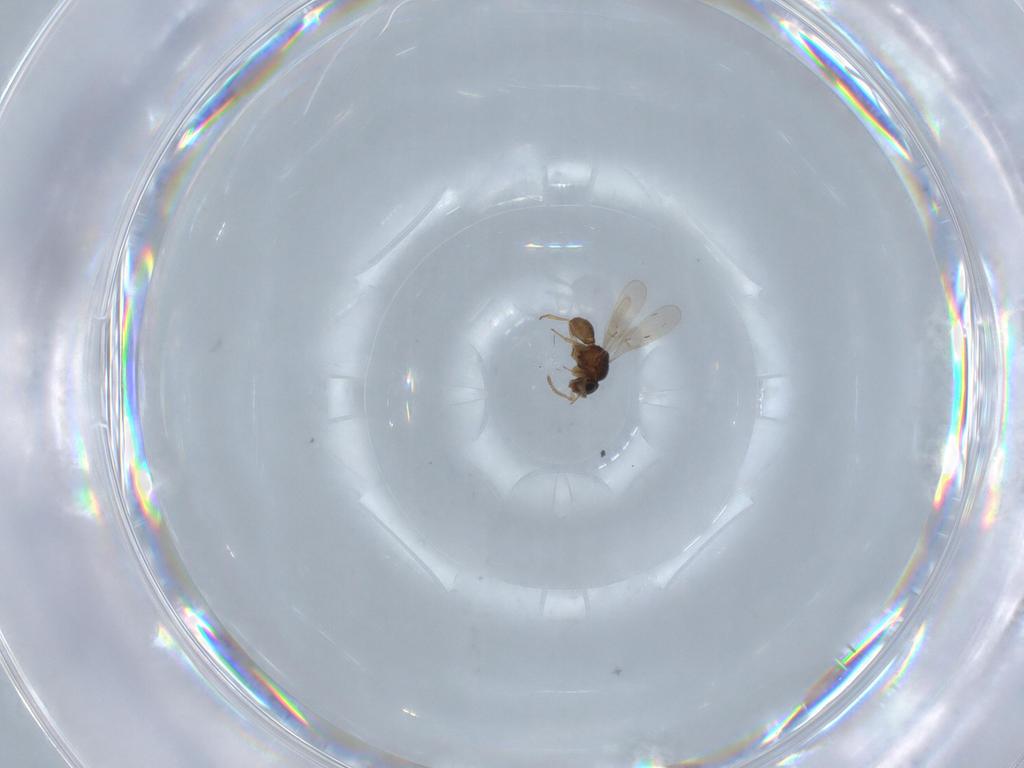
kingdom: Animalia
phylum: Arthropoda
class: Insecta
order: Hymenoptera
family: Scelionidae
